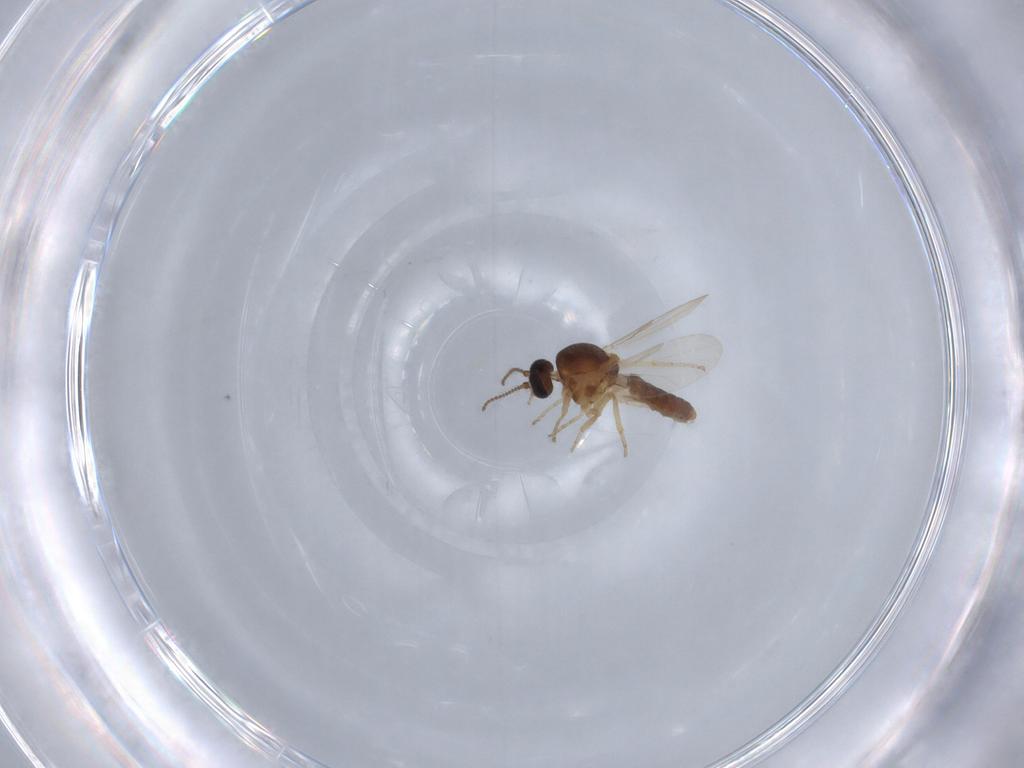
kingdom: Animalia
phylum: Arthropoda
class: Insecta
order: Diptera
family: Ceratopogonidae
